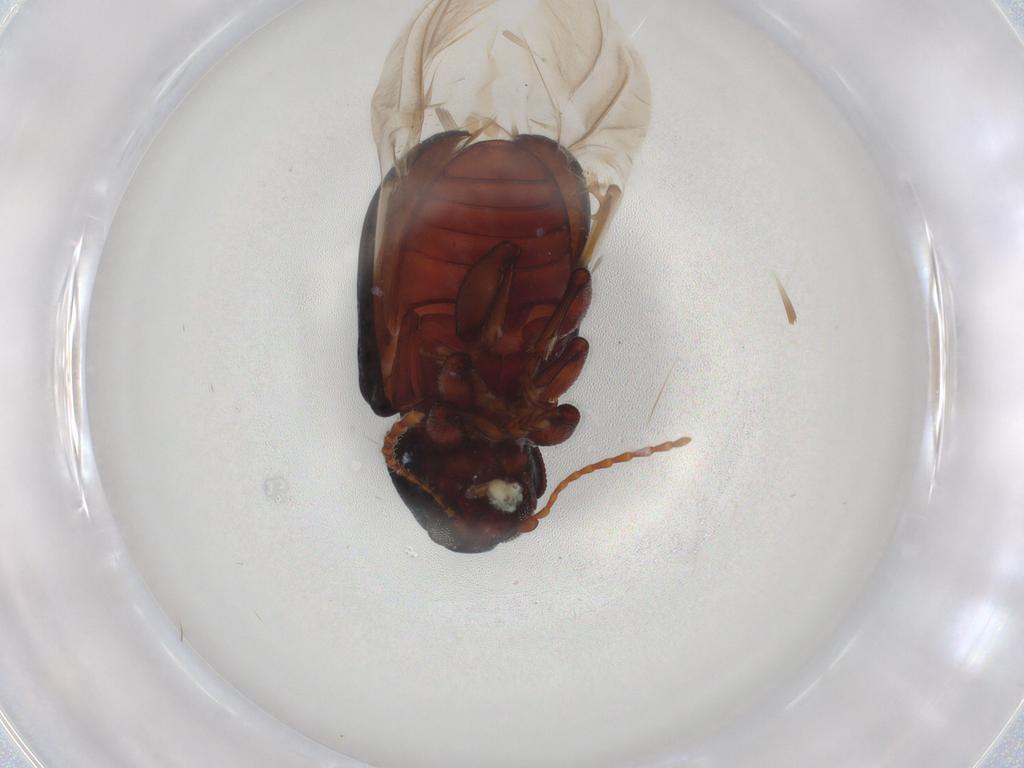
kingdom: Animalia
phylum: Arthropoda
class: Insecta
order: Coleoptera
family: Chrysomelidae
